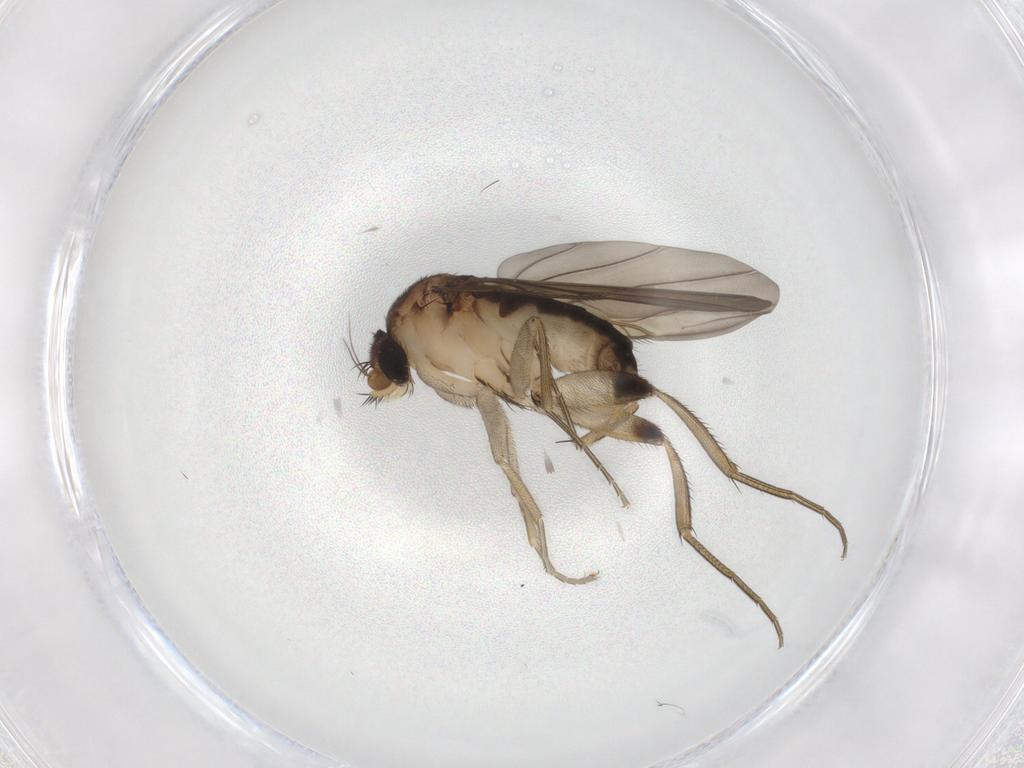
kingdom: Animalia
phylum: Arthropoda
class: Insecta
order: Diptera
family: Phoridae
